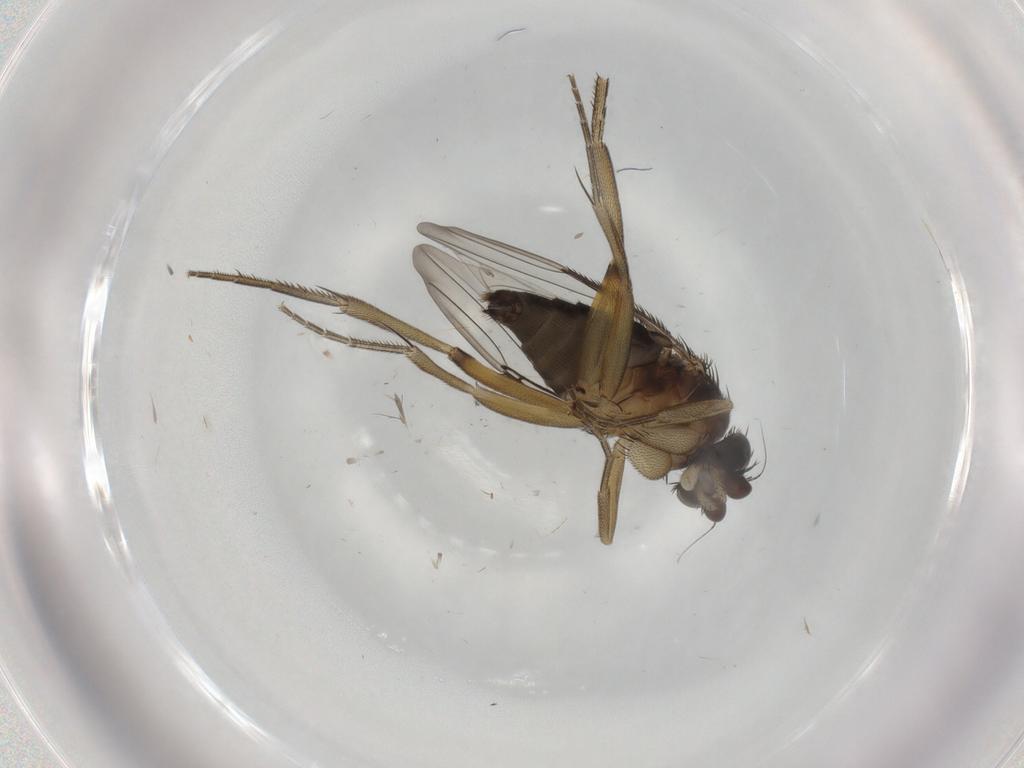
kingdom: Animalia
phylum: Arthropoda
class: Insecta
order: Diptera
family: Phoridae
